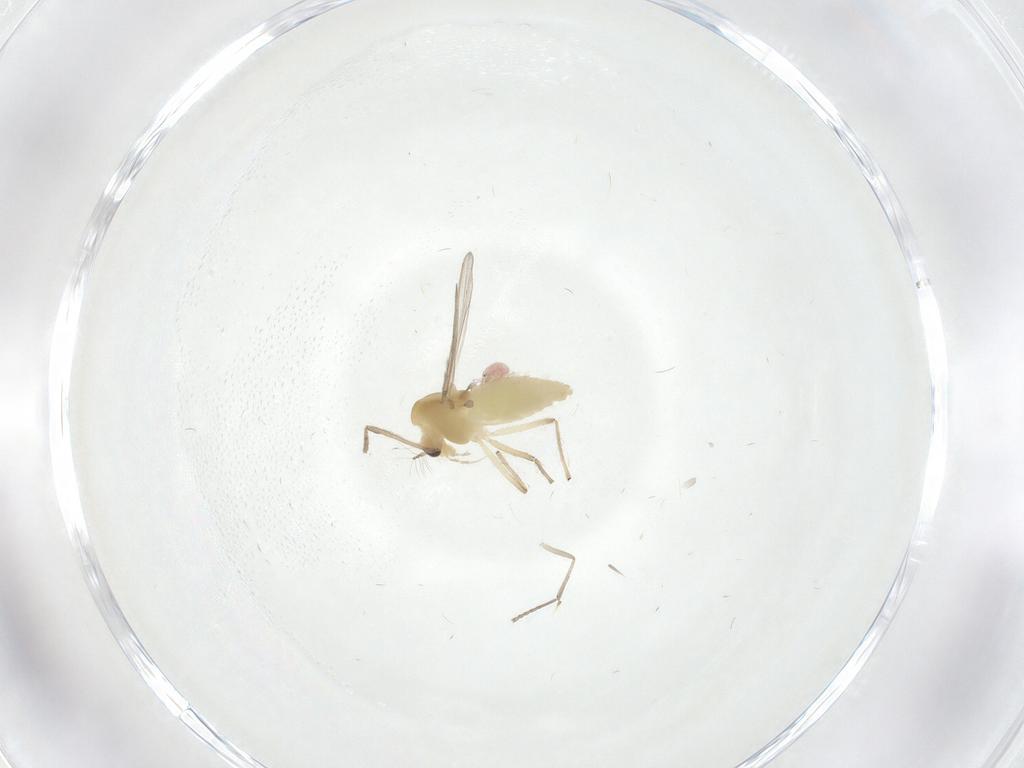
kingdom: Animalia
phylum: Arthropoda
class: Insecta
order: Diptera
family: Chironomidae
